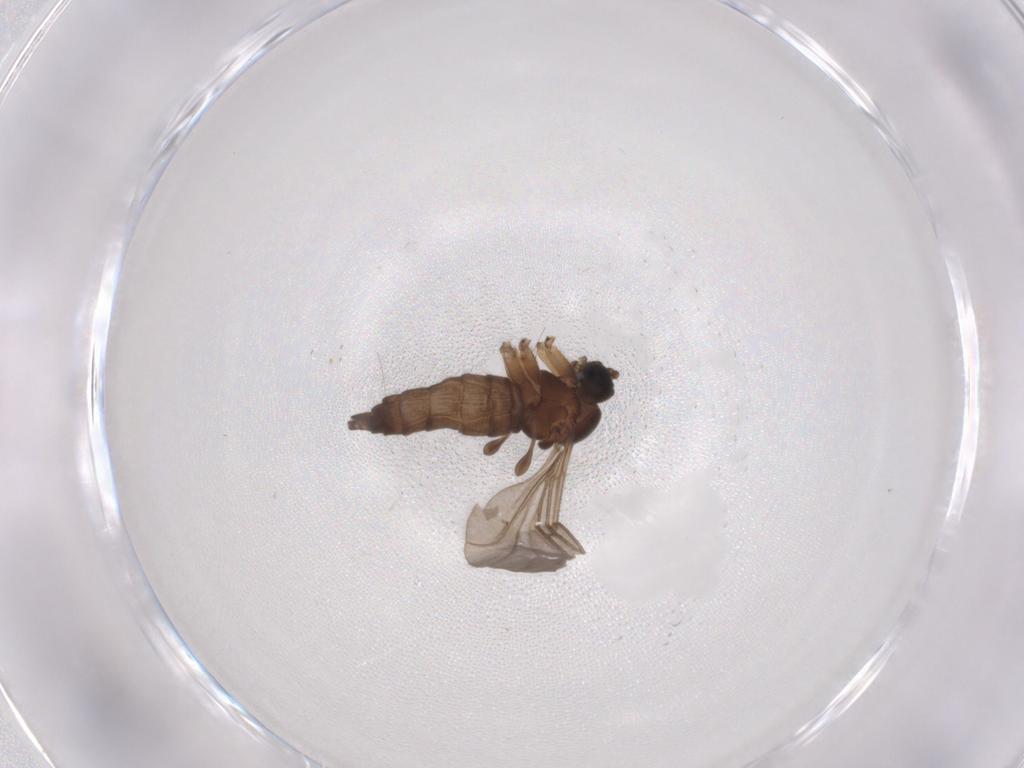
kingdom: Animalia
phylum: Arthropoda
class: Insecta
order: Diptera
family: Sciaridae
